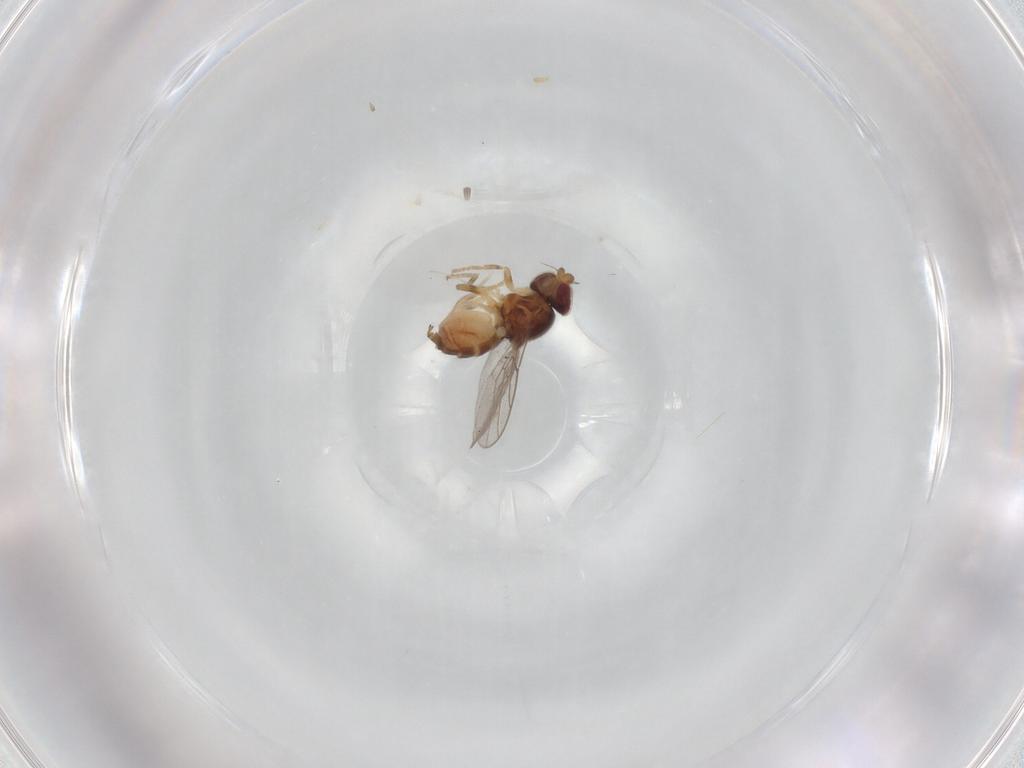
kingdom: Animalia
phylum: Arthropoda
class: Insecta
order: Diptera
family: Chloropidae
